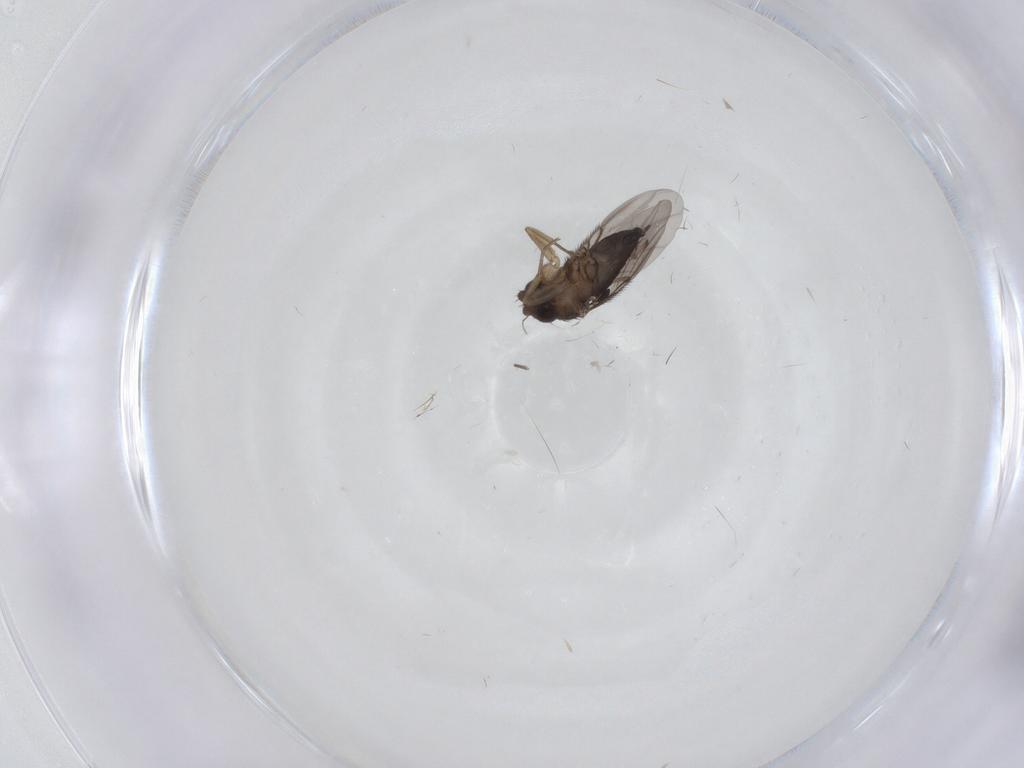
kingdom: Animalia
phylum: Arthropoda
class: Insecta
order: Diptera
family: Phoridae
